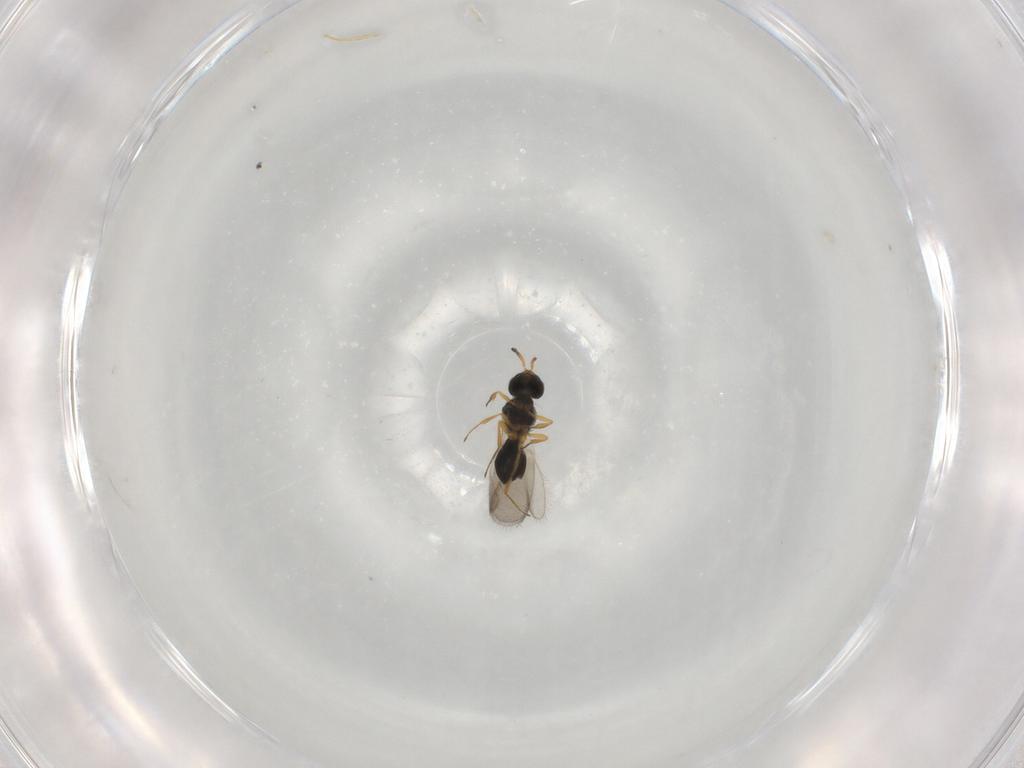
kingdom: Animalia
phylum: Arthropoda
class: Insecta
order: Hymenoptera
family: Scelionidae
